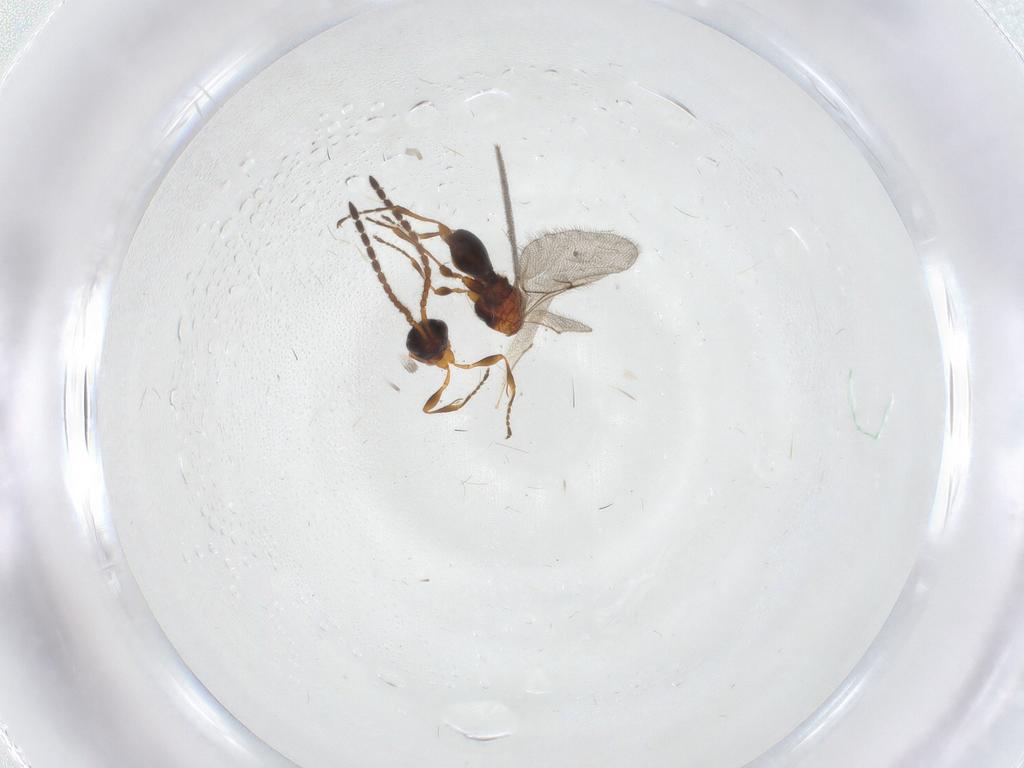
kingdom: Animalia
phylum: Arthropoda
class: Insecta
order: Hymenoptera
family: Diapriidae
